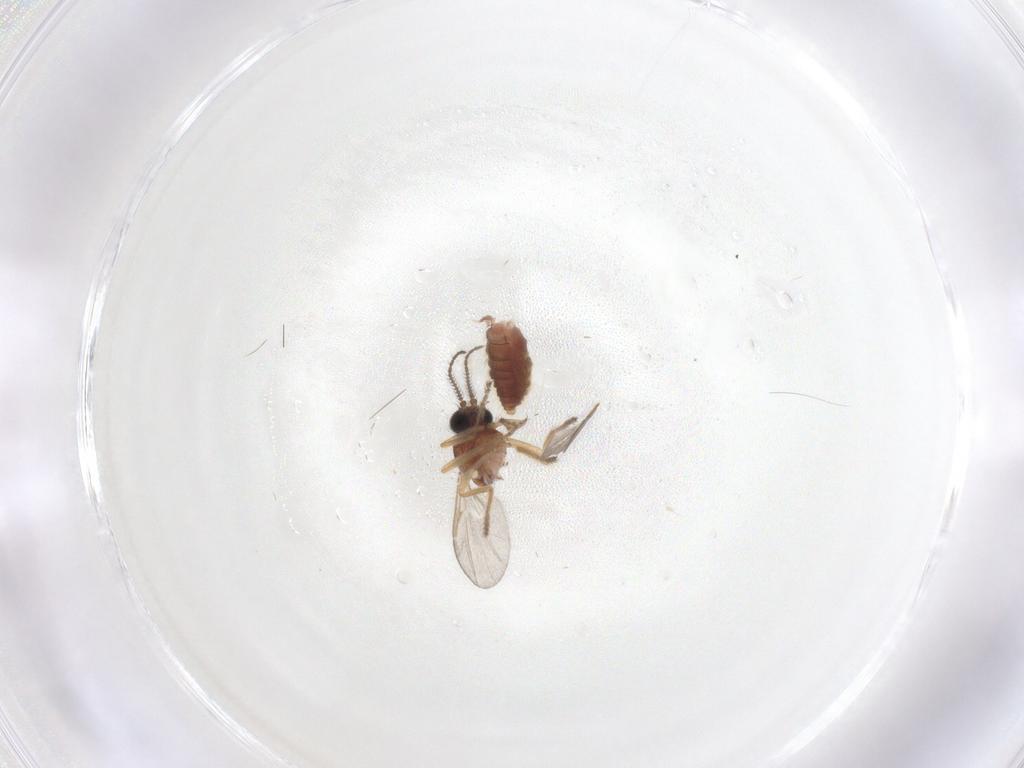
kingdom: Animalia
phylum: Arthropoda
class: Insecta
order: Diptera
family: Ceratopogonidae
